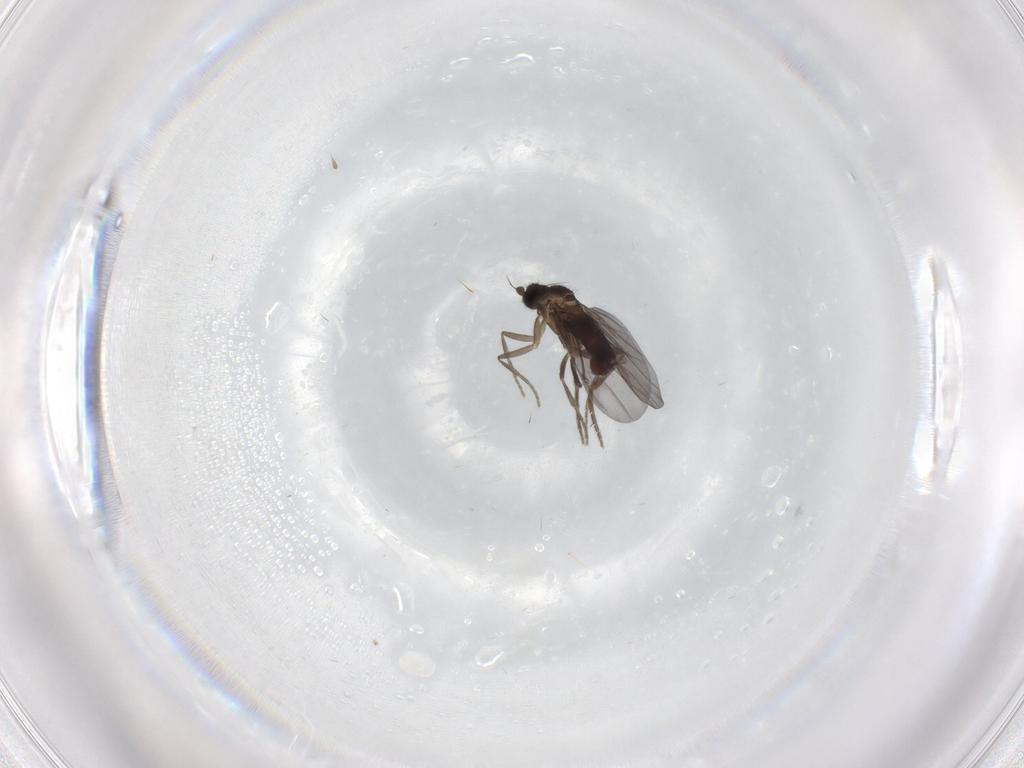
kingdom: Animalia
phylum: Arthropoda
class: Insecta
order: Diptera
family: Phoridae
